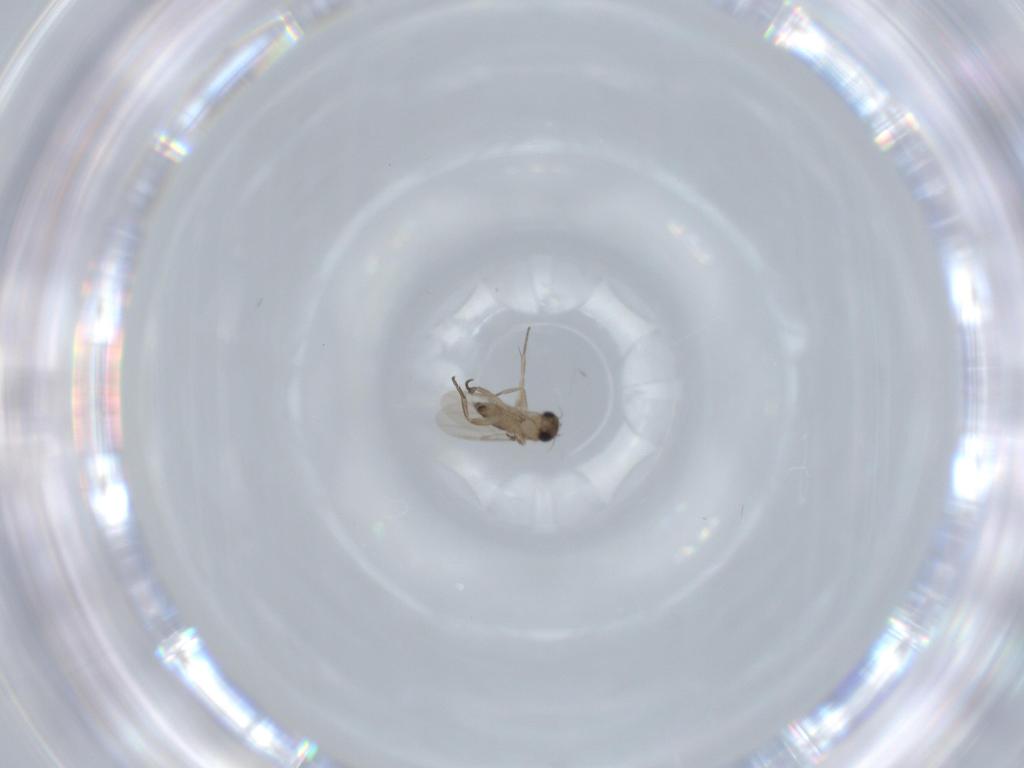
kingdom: Animalia
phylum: Arthropoda
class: Insecta
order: Diptera
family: Phoridae
